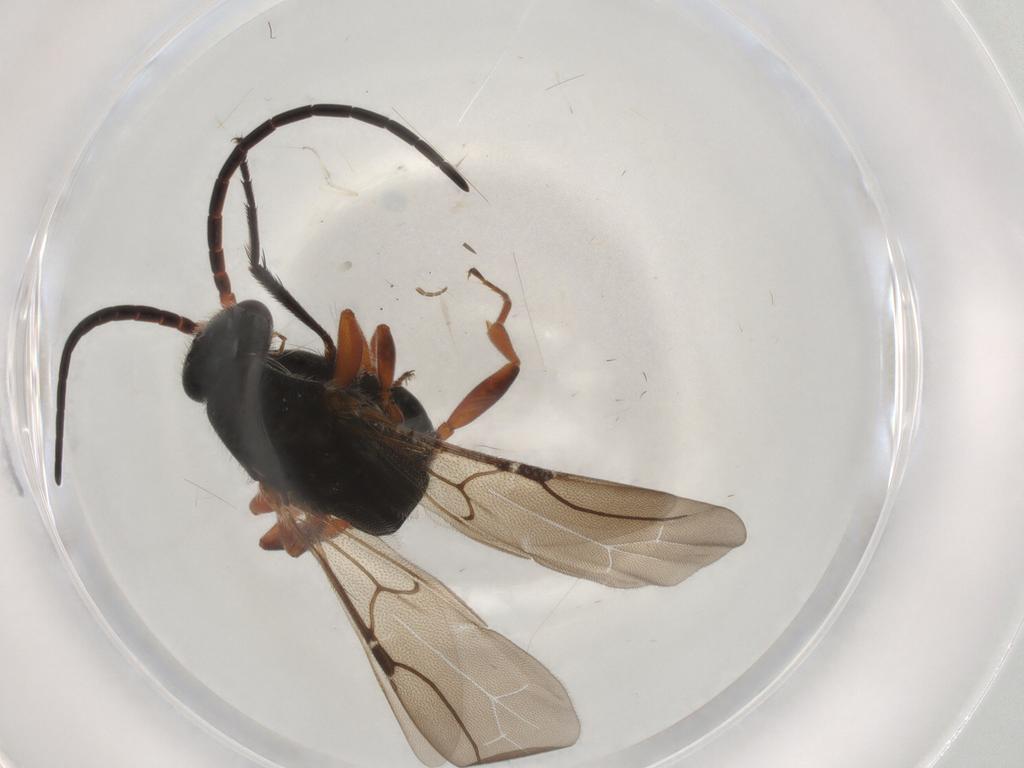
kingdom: Animalia
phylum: Arthropoda
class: Insecta
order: Hymenoptera
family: Bethylidae
